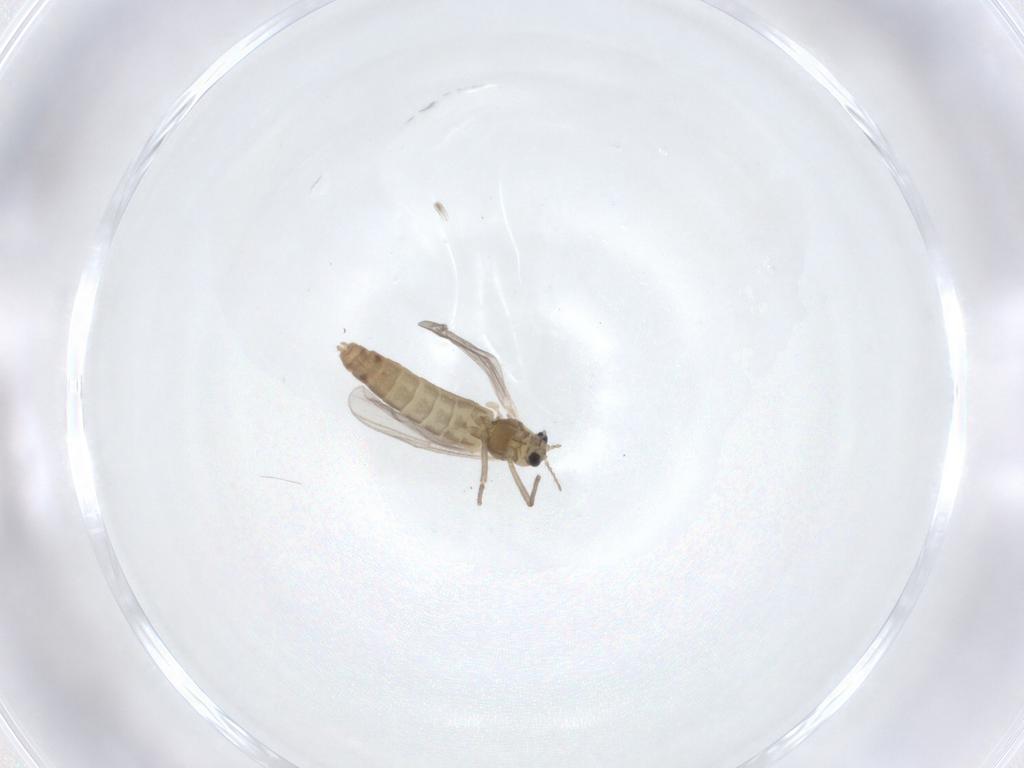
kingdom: Animalia
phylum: Arthropoda
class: Insecta
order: Diptera
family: Chironomidae
